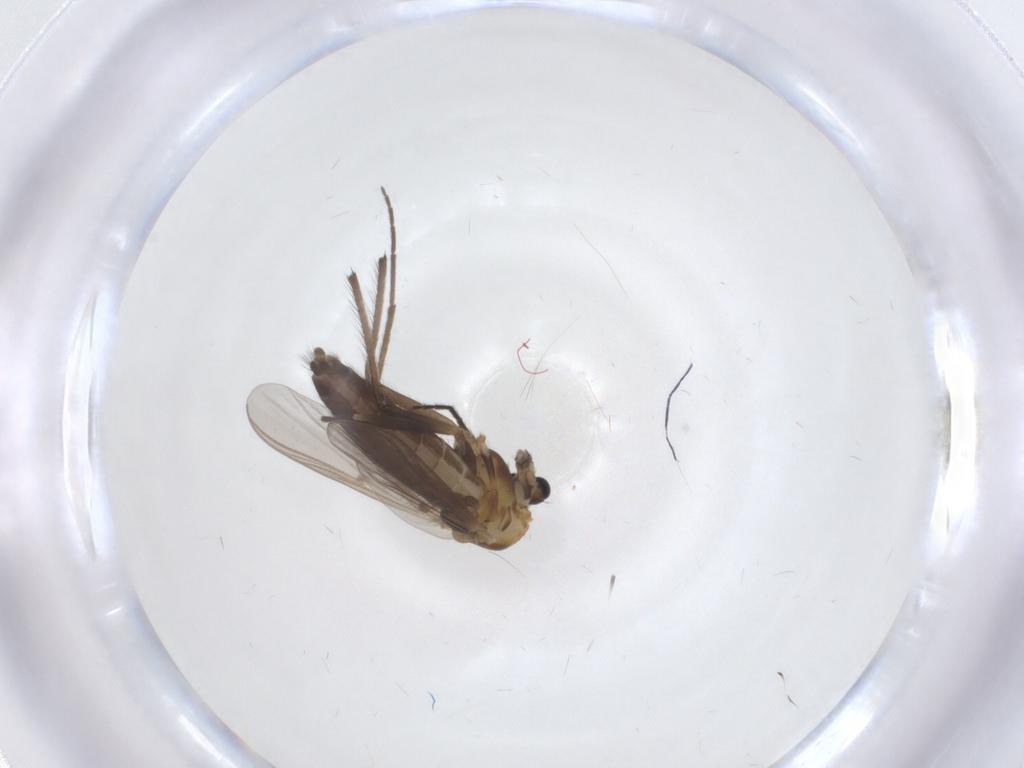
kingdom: Animalia
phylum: Arthropoda
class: Insecta
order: Diptera
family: Chironomidae
